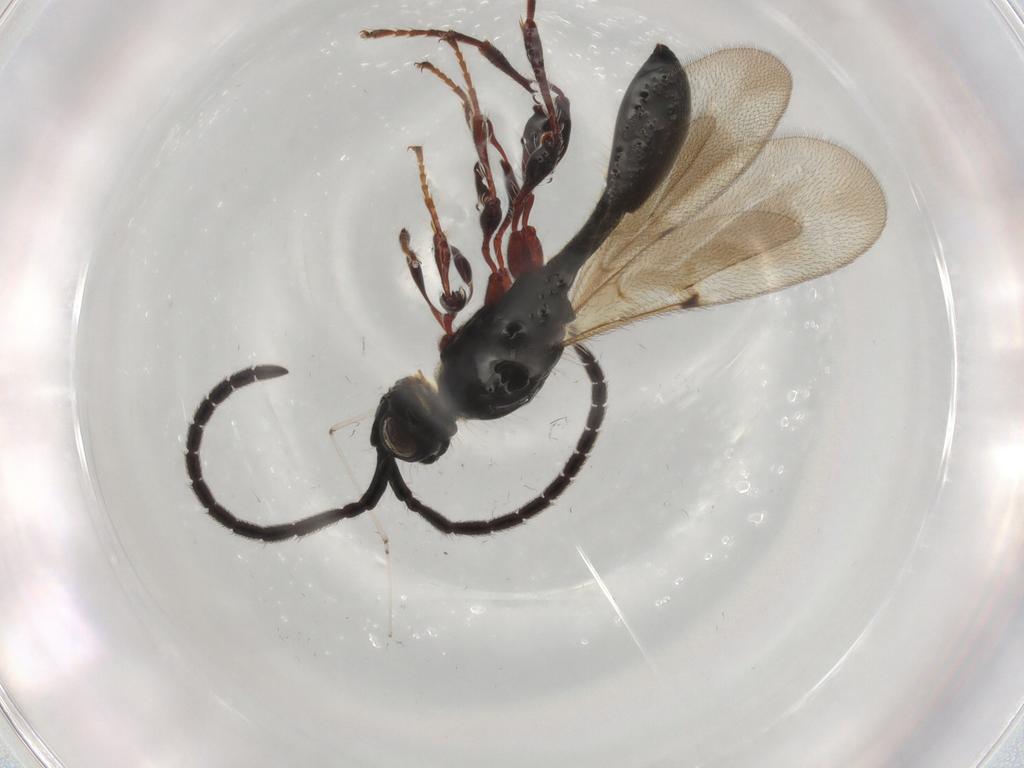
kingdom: Animalia
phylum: Arthropoda
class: Insecta
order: Hymenoptera
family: Diapriidae
